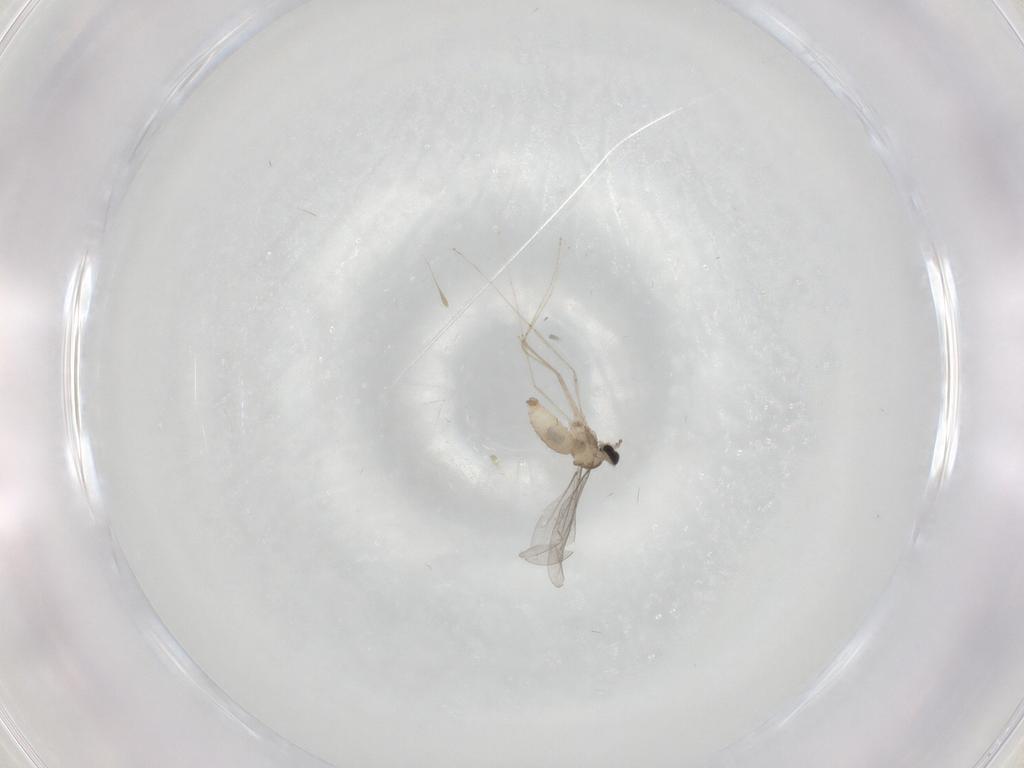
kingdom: Animalia
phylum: Arthropoda
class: Insecta
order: Diptera
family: Cecidomyiidae
